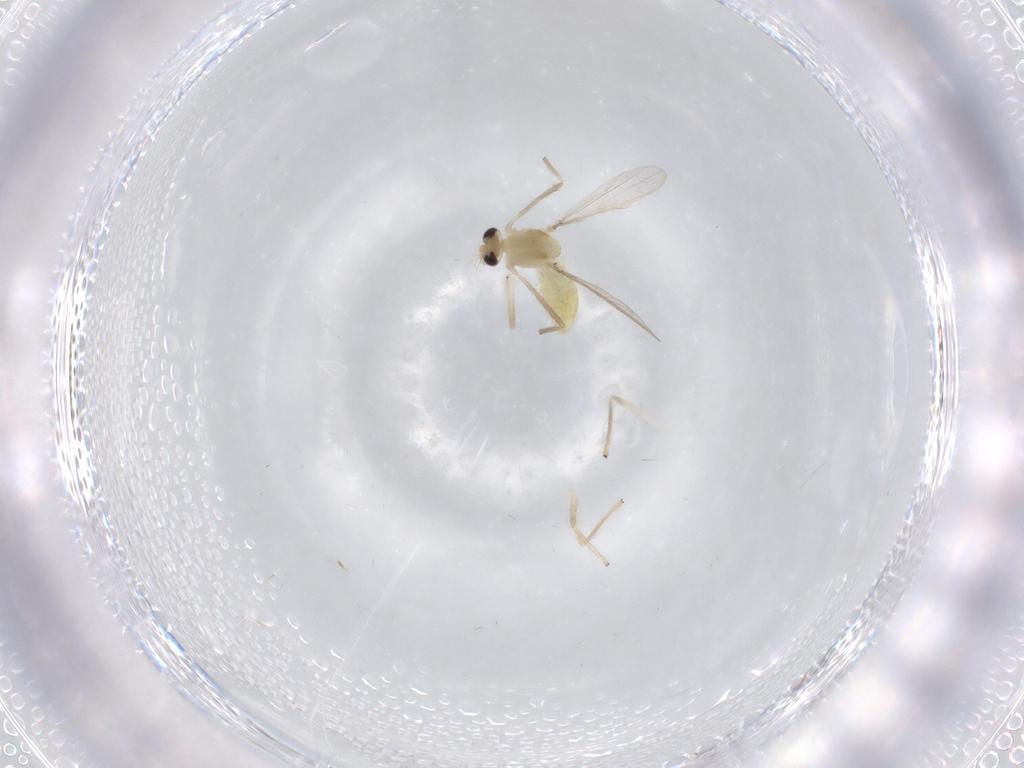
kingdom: Animalia
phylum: Arthropoda
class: Insecta
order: Diptera
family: Chironomidae
